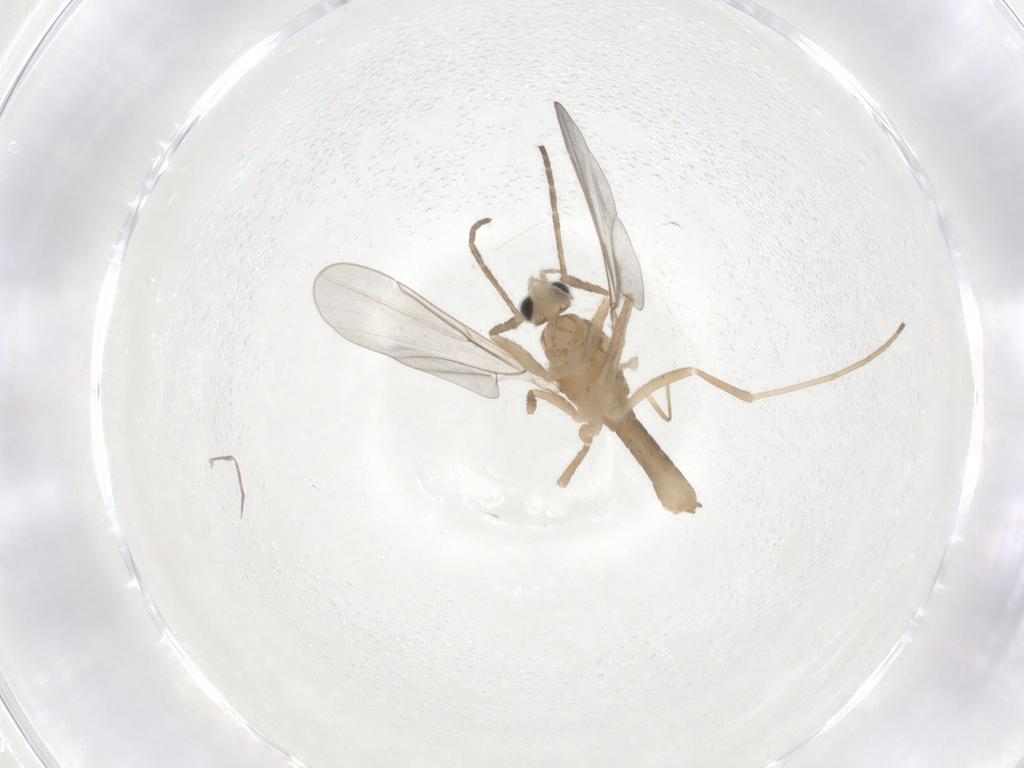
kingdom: Animalia
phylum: Arthropoda
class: Insecta
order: Diptera
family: Cecidomyiidae
